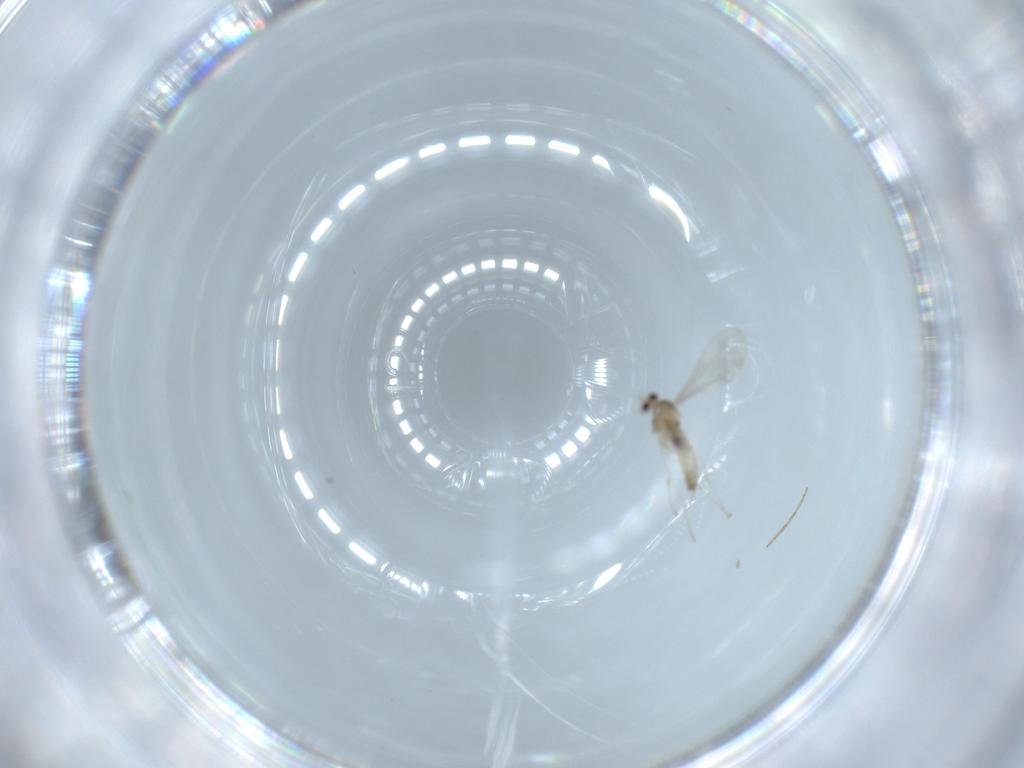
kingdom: Animalia
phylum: Arthropoda
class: Insecta
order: Diptera
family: Cecidomyiidae
